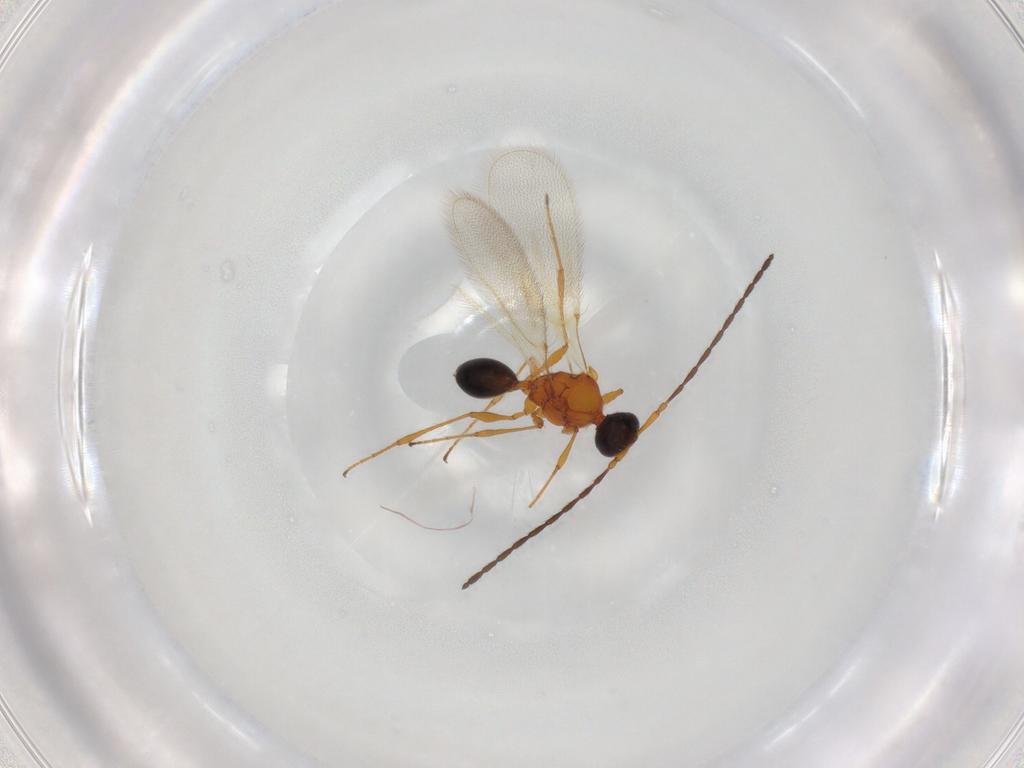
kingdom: Animalia
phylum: Arthropoda
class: Insecta
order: Hymenoptera
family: Diapriidae
